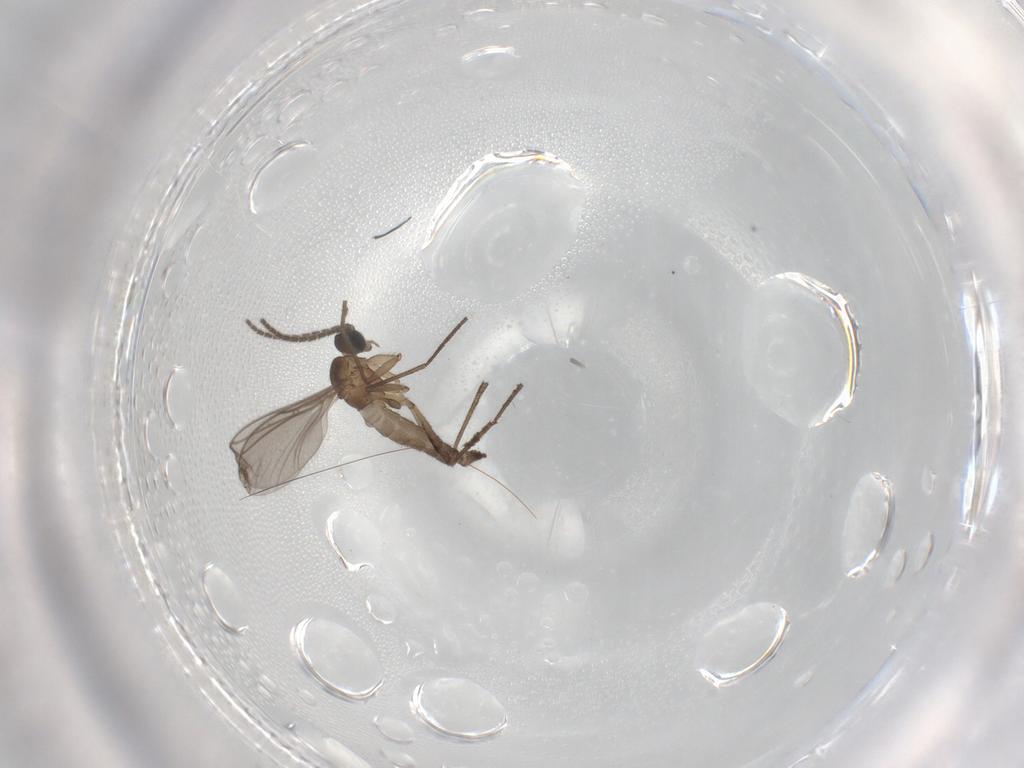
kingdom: Animalia
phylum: Arthropoda
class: Insecta
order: Diptera
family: Sciaridae
